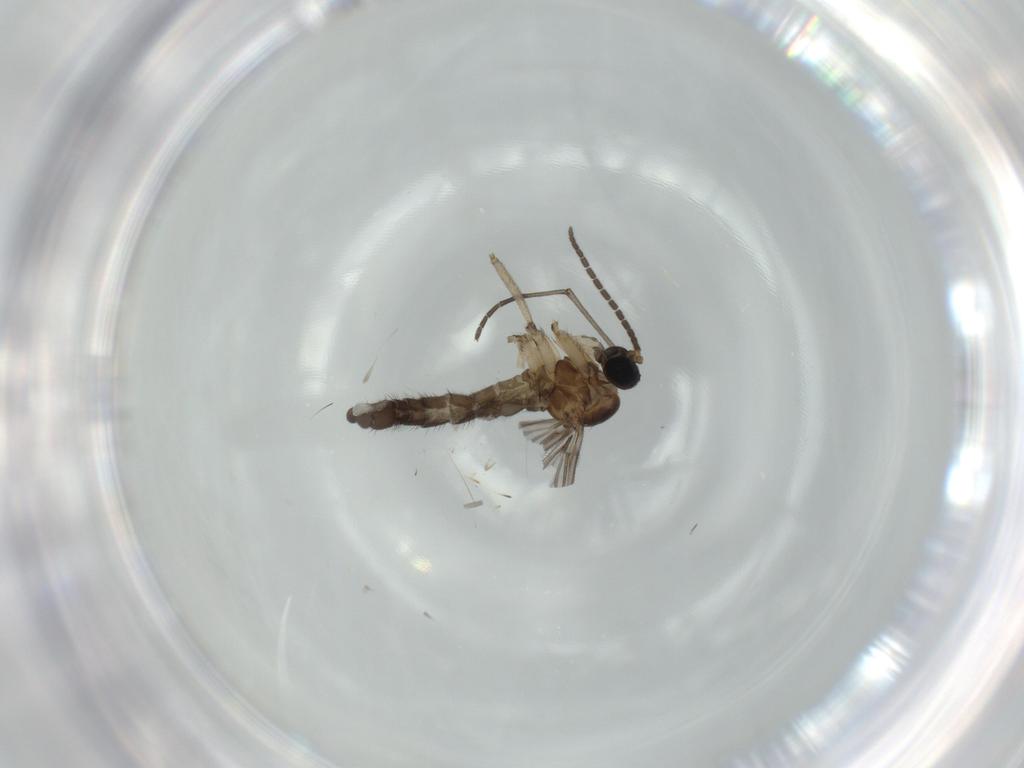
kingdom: Animalia
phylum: Arthropoda
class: Insecta
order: Diptera
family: Sciaridae
